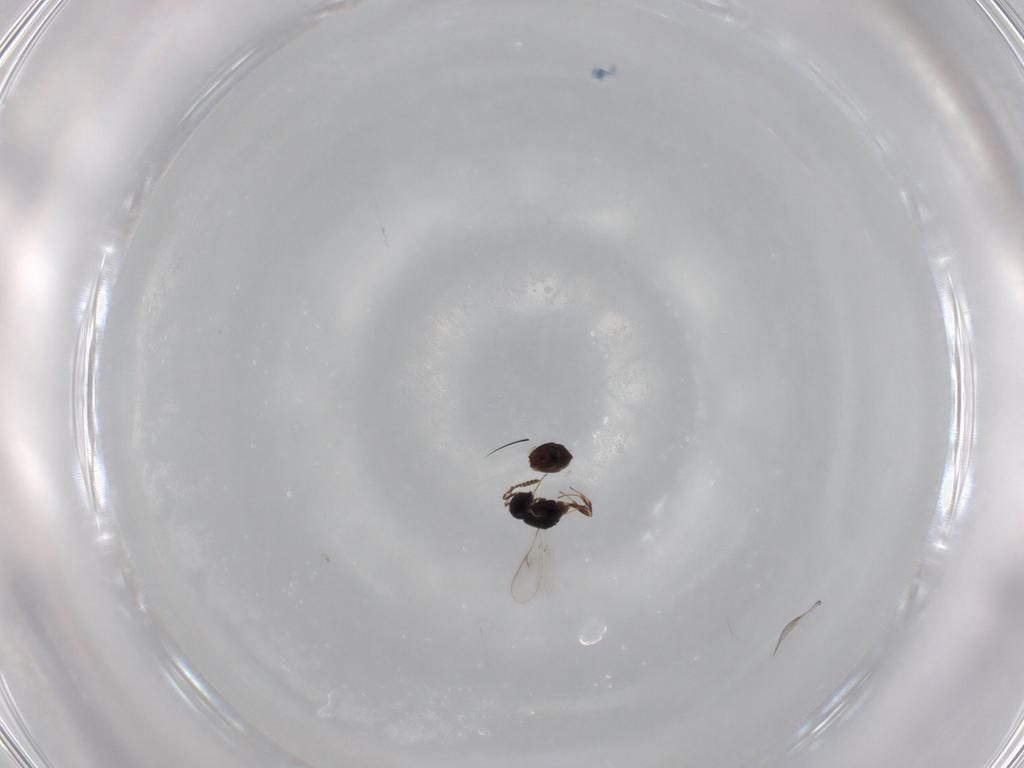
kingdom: Animalia
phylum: Arthropoda
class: Insecta
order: Hymenoptera
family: Scelionidae
